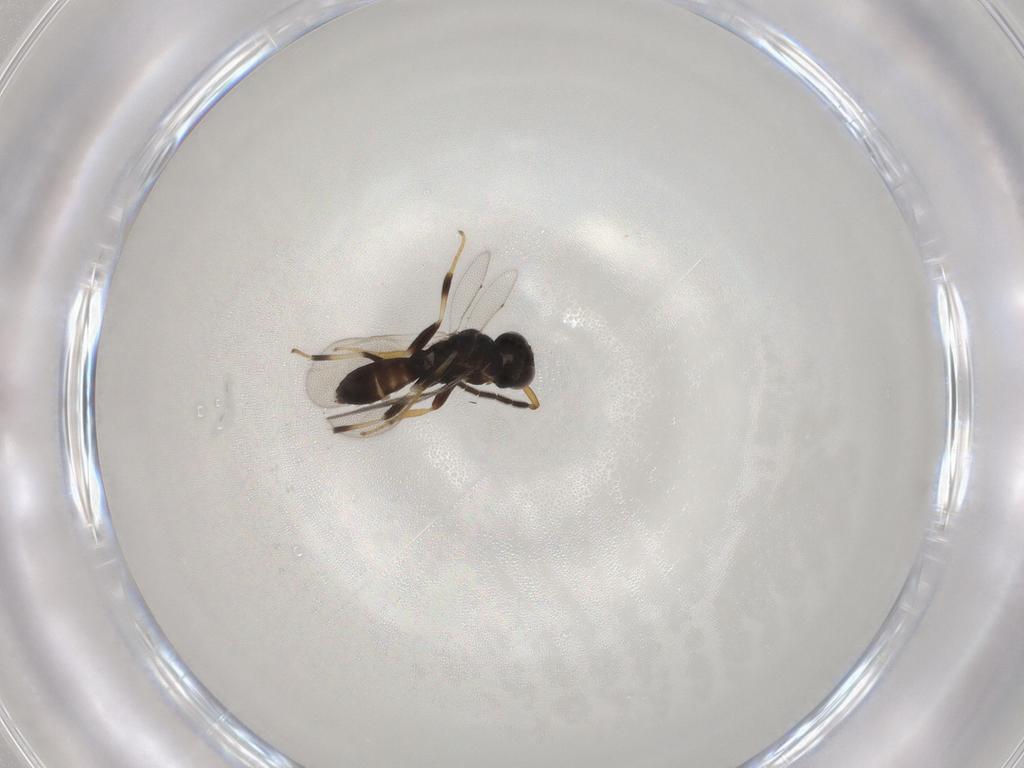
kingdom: Animalia
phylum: Arthropoda
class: Insecta
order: Hymenoptera
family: Eupelmidae
